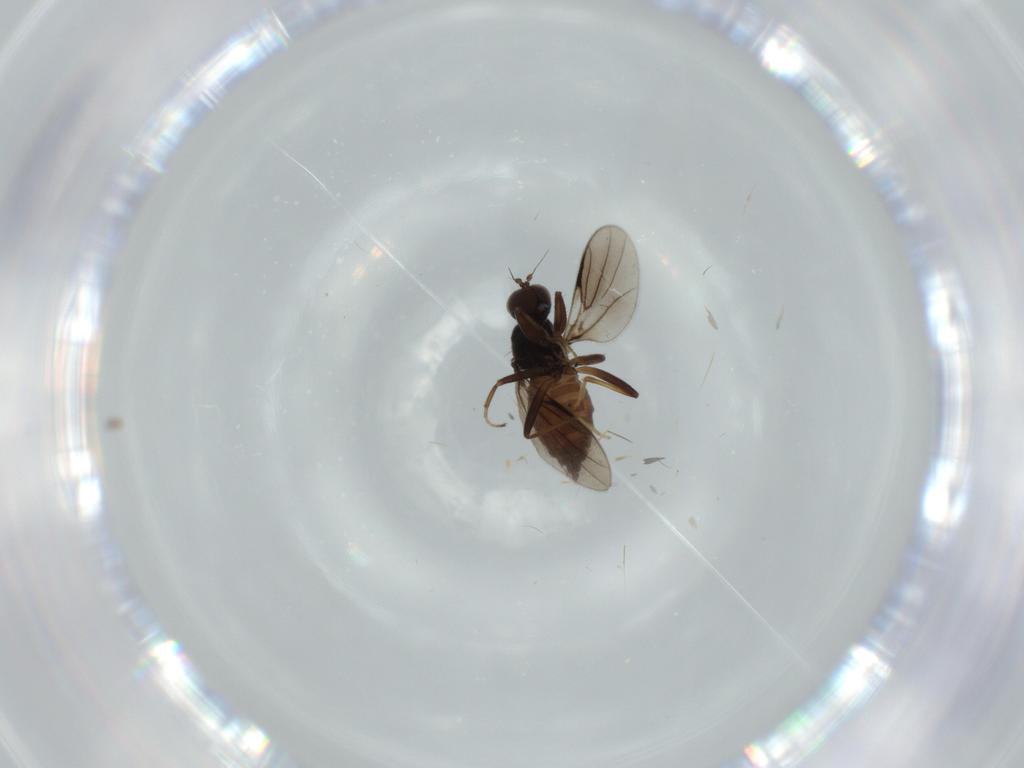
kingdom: Animalia
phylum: Arthropoda
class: Insecta
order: Diptera
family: Hybotidae
